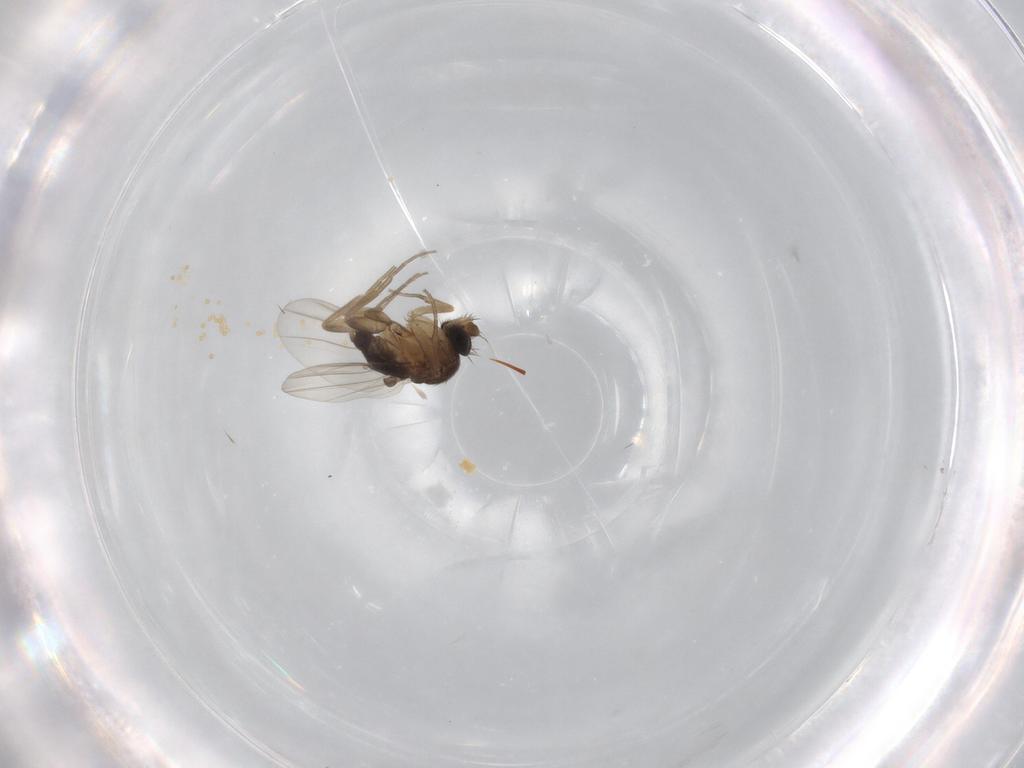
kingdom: Animalia
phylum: Arthropoda
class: Insecta
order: Diptera
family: Phoridae
